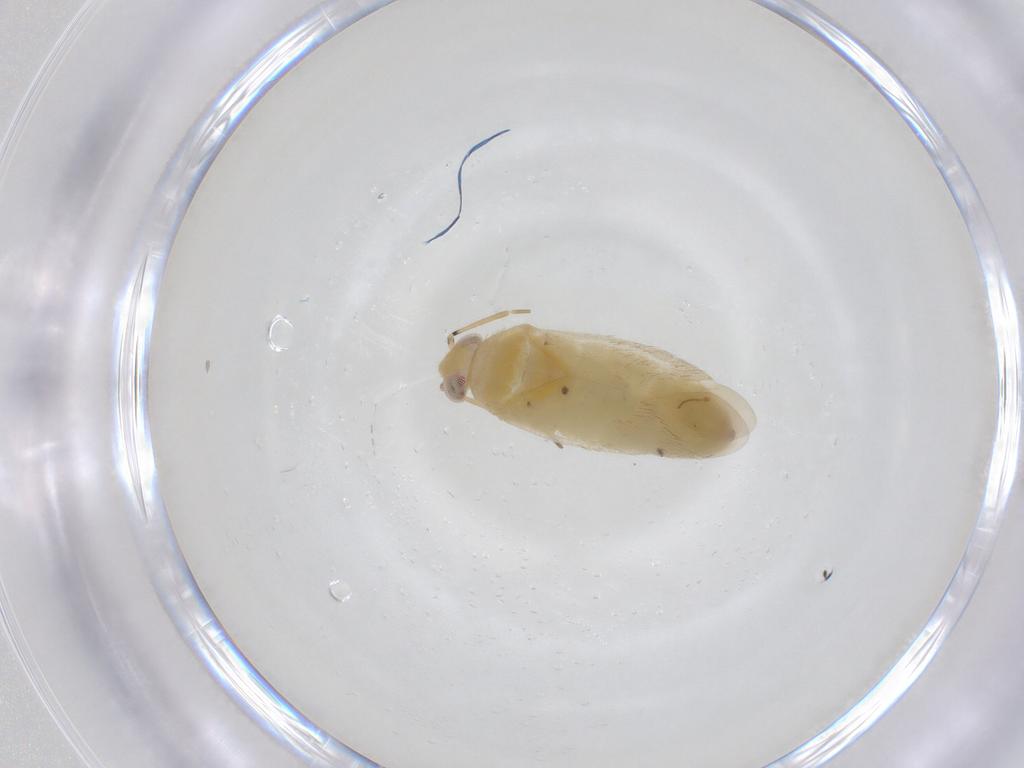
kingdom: Animalia
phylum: Arthropoda
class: Insecta
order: Hemiptera
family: Miridae
